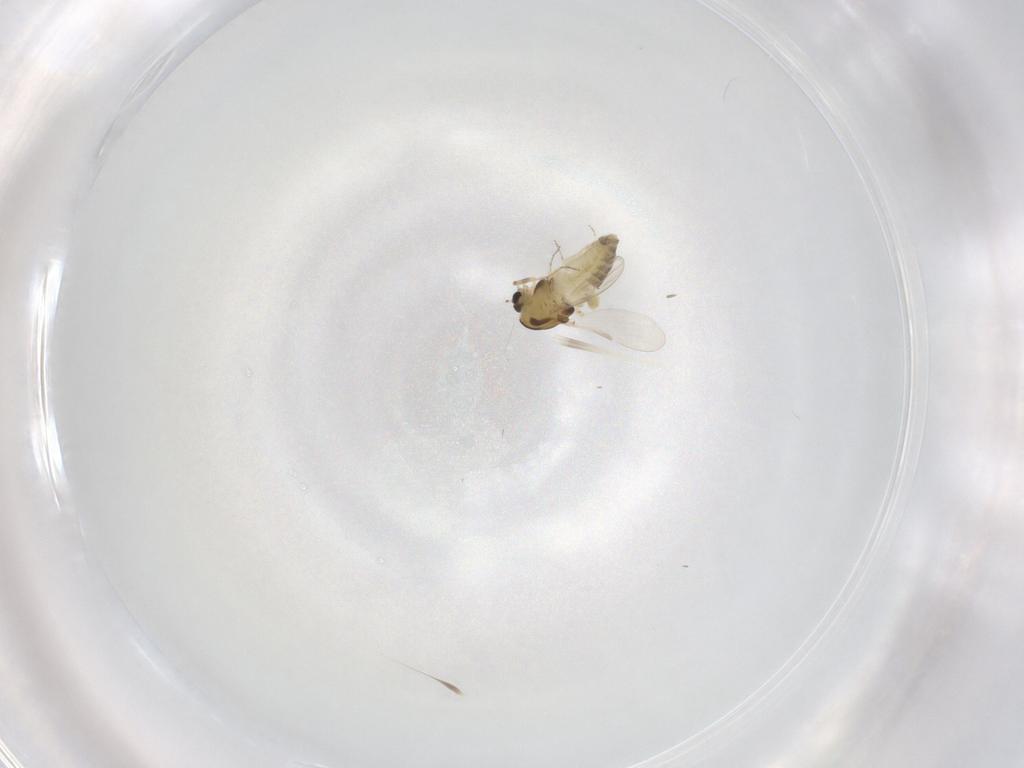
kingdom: Animalia
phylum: Arthropoda
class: Insecta
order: Diptera
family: Chironomidae
